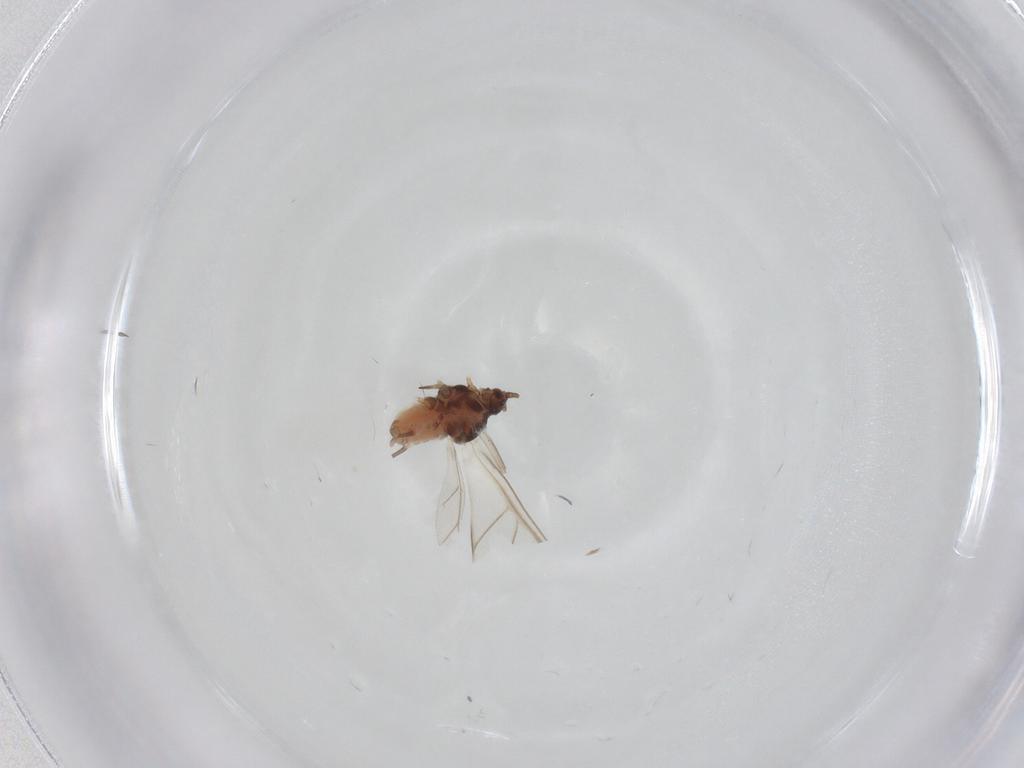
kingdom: Animalia
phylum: Arthropoda
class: Insecta
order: Hemiptera
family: Aphididae
